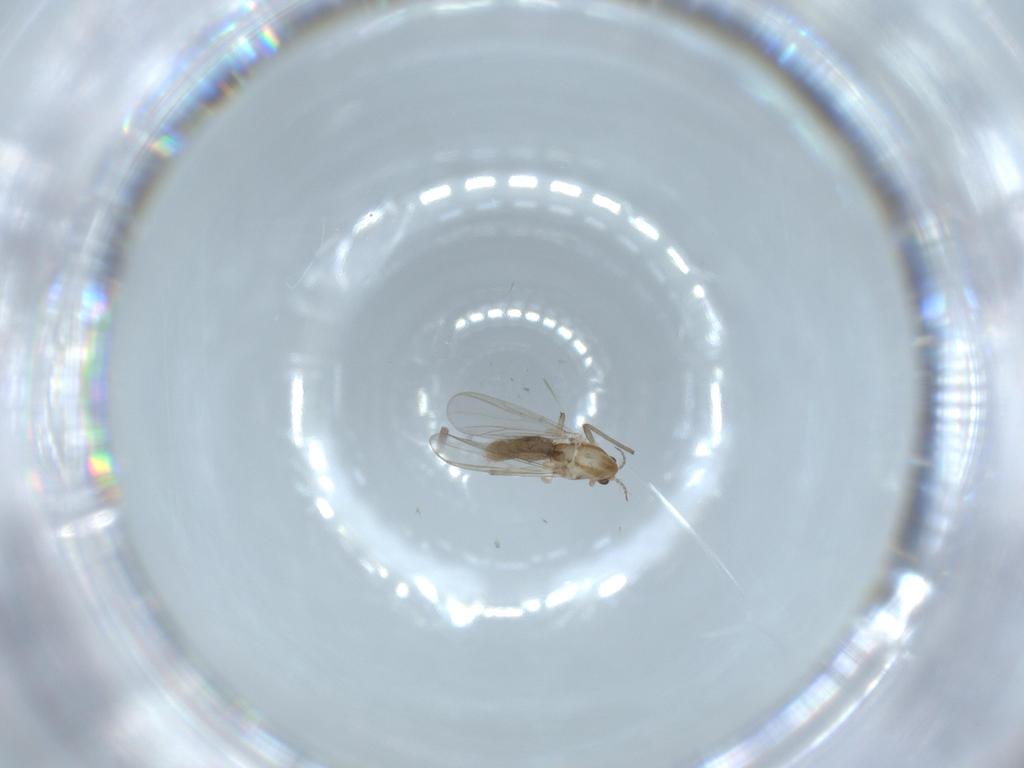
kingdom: Animalia
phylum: Arthropoda
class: Insecta
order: Diptera
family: Chironomidae
